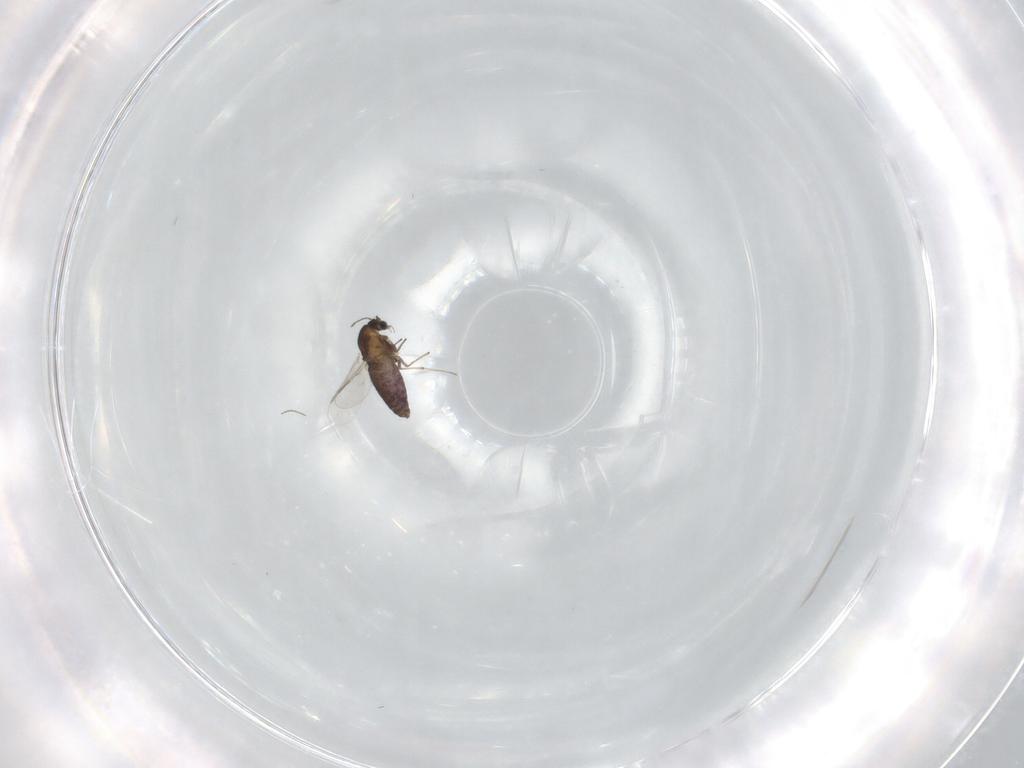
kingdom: Animalia
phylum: Arthropoda
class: Insecta
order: Diptera
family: Chironomidae
